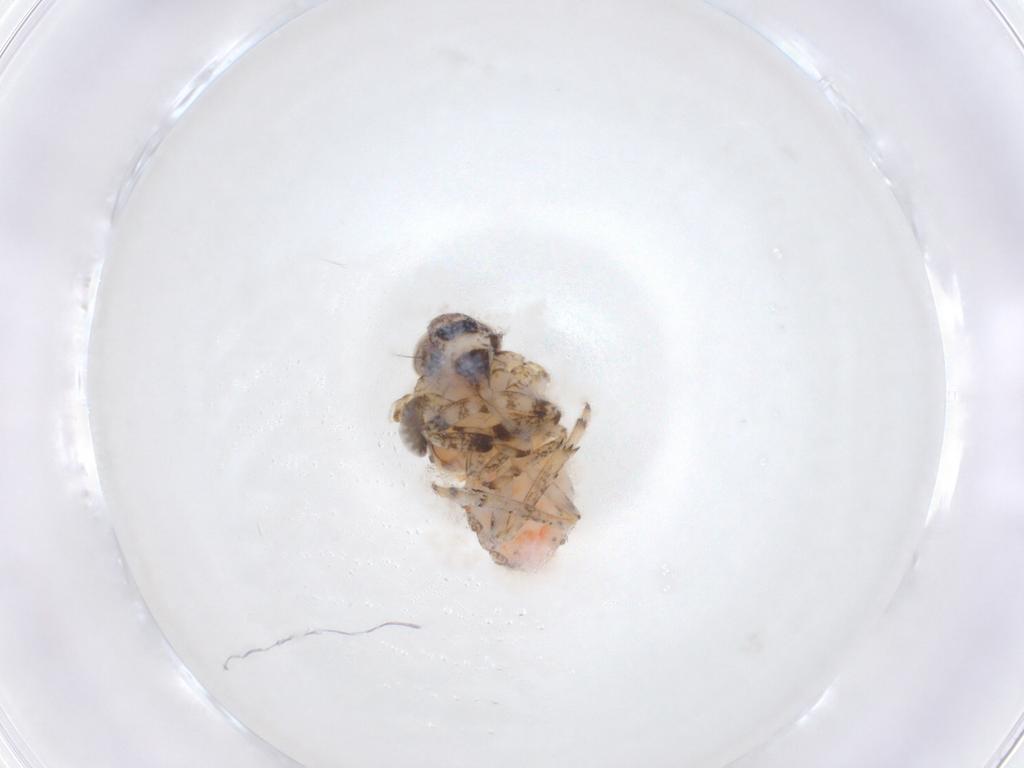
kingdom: Animalia
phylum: Arthropoda
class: Insecta
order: Hemiptera
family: Issidae
